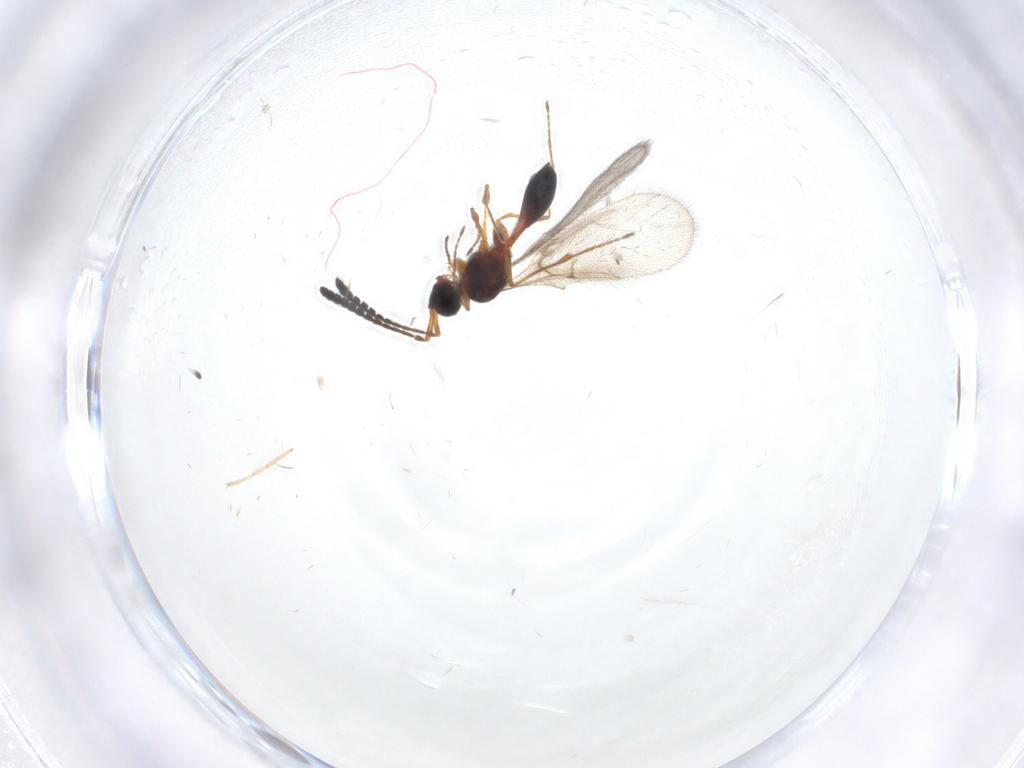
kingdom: Animalia
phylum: Arthropoda
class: Insecta
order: Hymenoptera
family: Diapriidae
